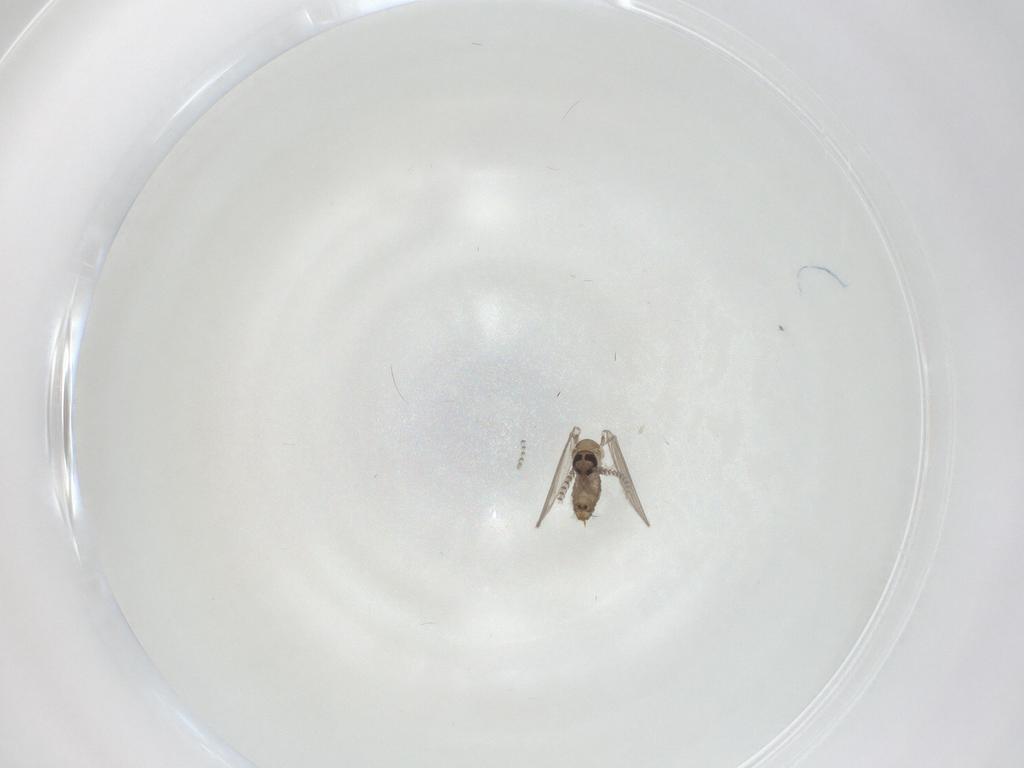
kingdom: Animalia
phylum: Arthropoda
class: Insecta
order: Diptera
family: Psychodidae
